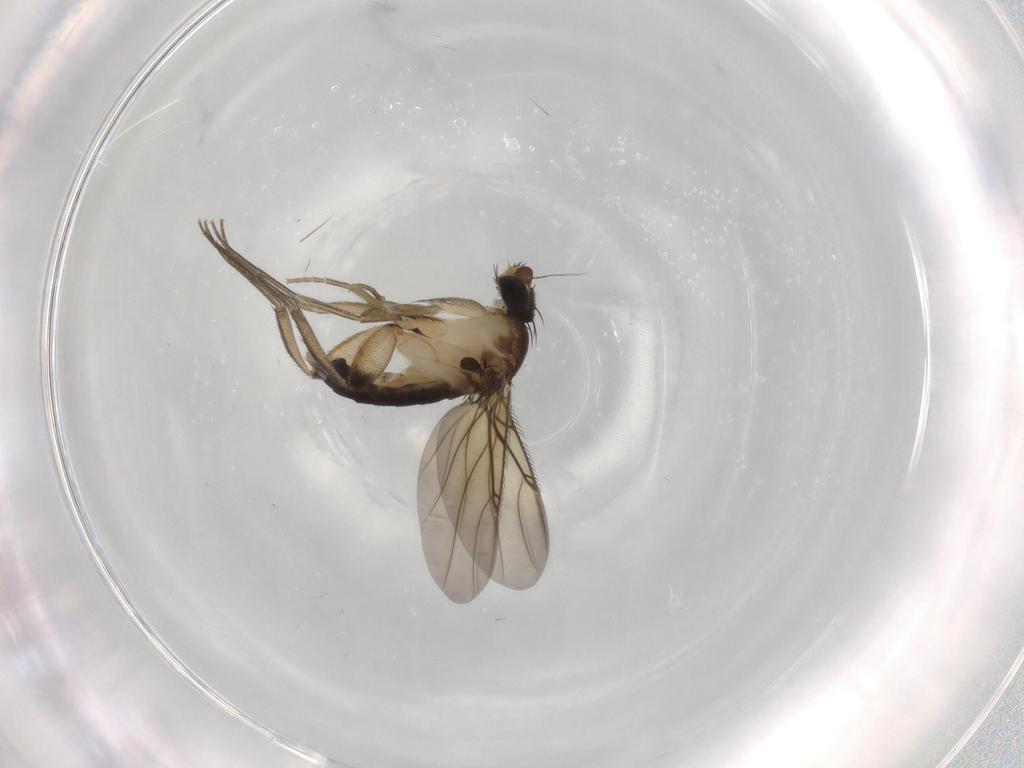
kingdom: Animalia
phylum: Arthropoda
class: Insecta
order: Diptera
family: Phoridae
